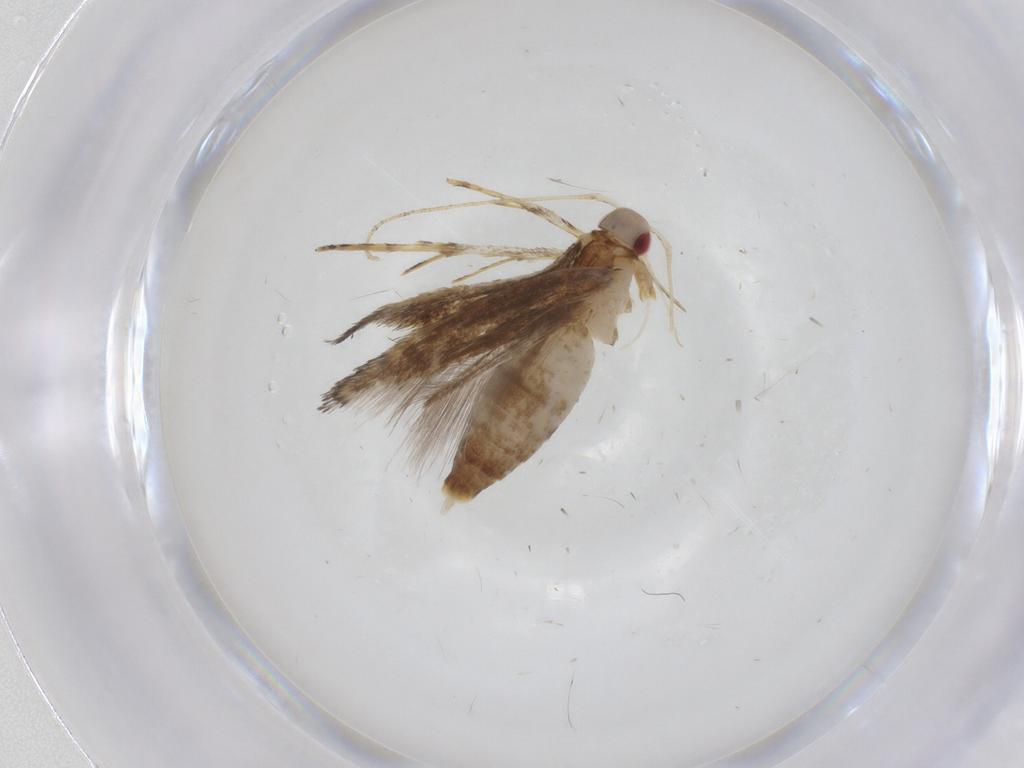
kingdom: Animalia
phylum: Arthropoda
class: Insecta
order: Lepidoptera
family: Cosmopterigidae
